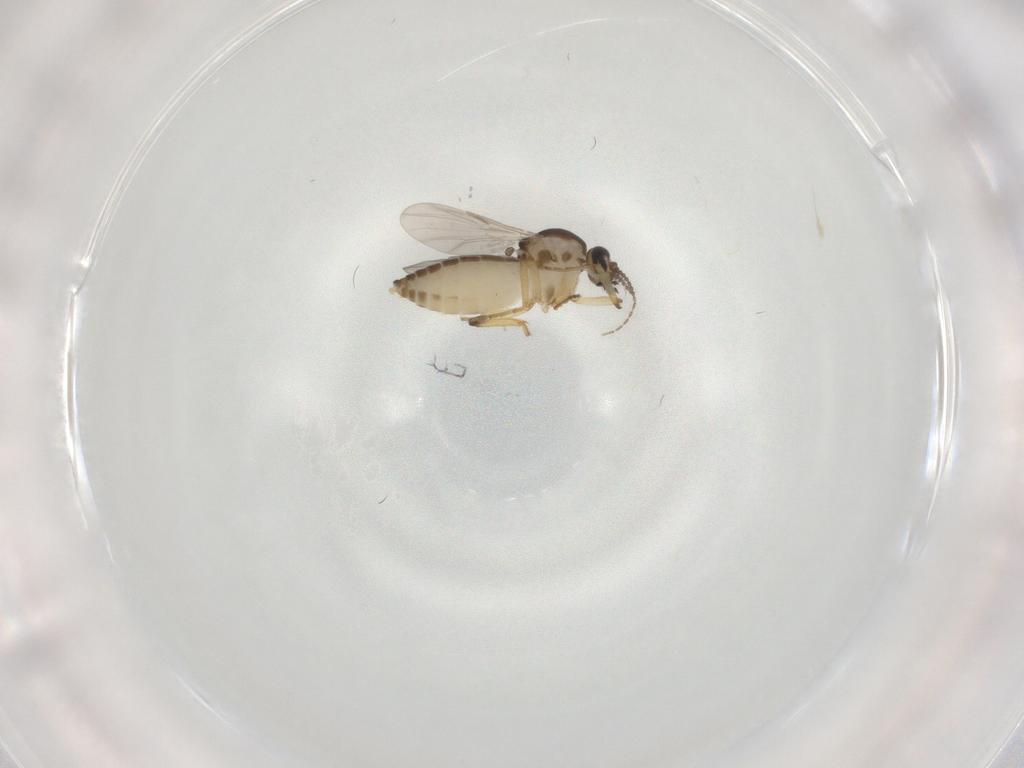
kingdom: Animalia
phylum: Arthropoda
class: Insecta
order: Diptera
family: Ceratopogonidae
